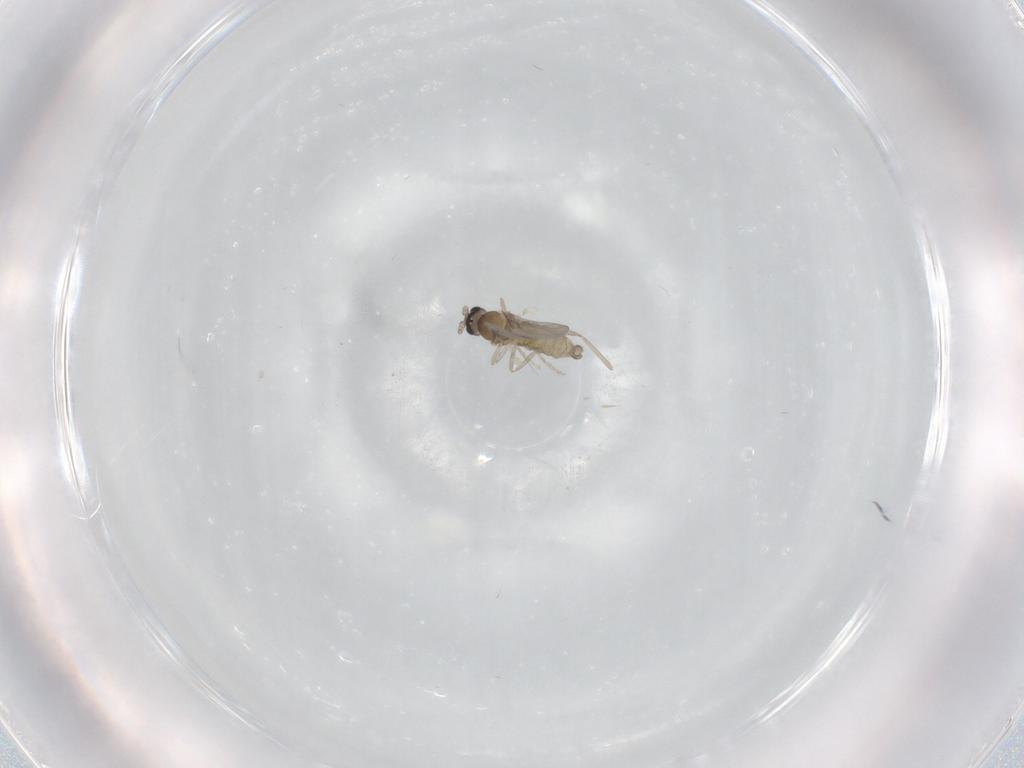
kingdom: Animalia
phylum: Arthropoda
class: Insecta
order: Diptera
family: Cecidomyiidae
